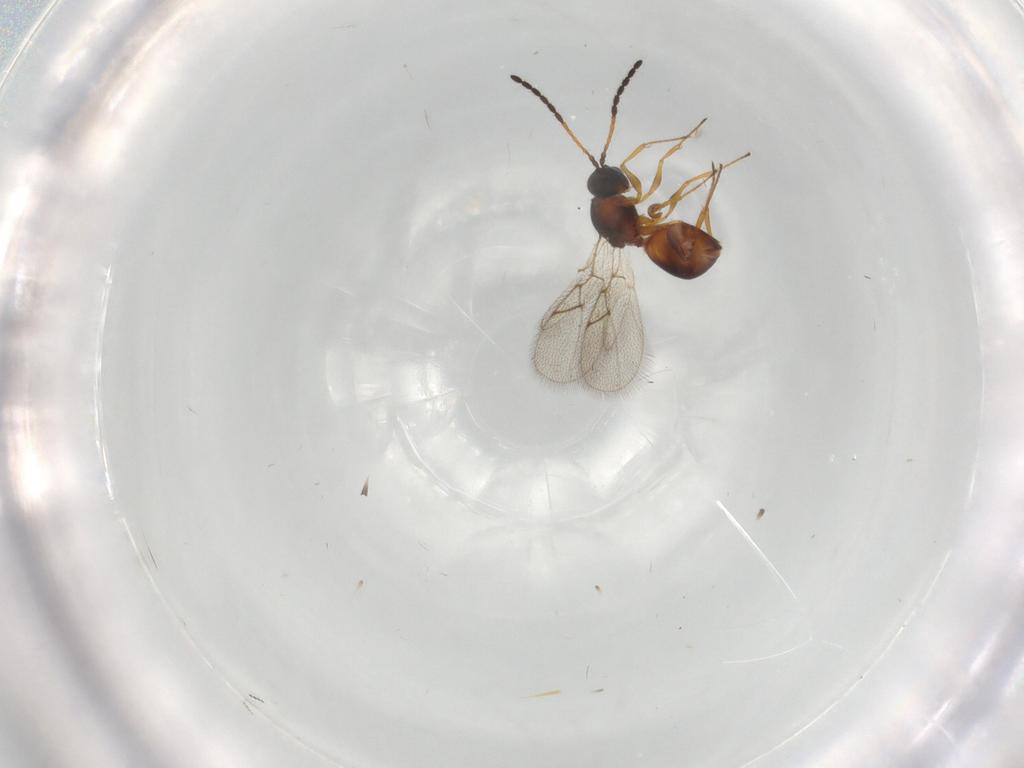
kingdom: Animalia
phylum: Arthropoda
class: Insecta
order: Hymenoptera
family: Figitidae
